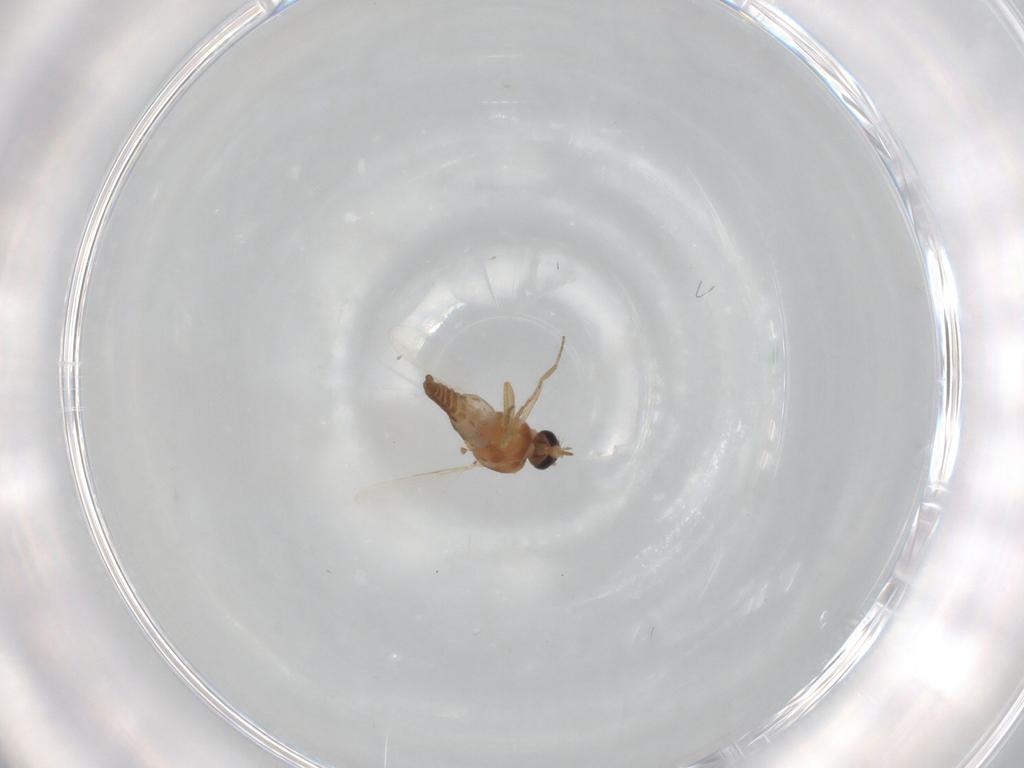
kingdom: Animalia
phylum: Arthropoda
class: Insecta
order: Diptera
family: Ceratopogonidae
